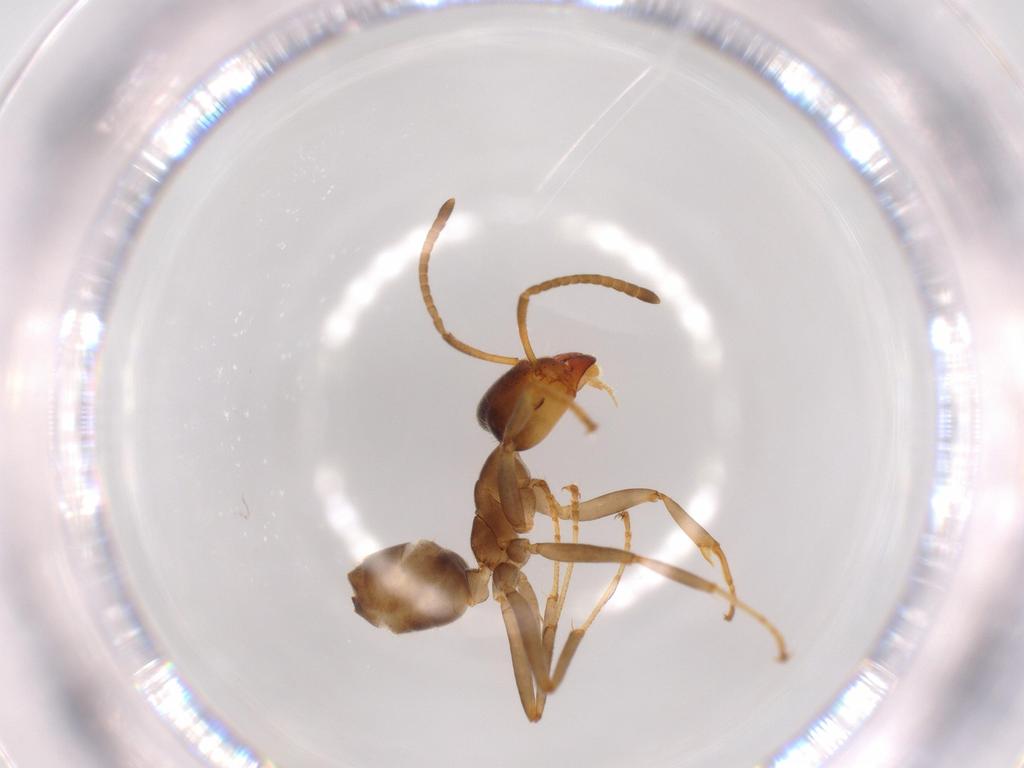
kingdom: Animalia
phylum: Arthropoda
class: Insecta
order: Hymenoptera
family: Formicidae
